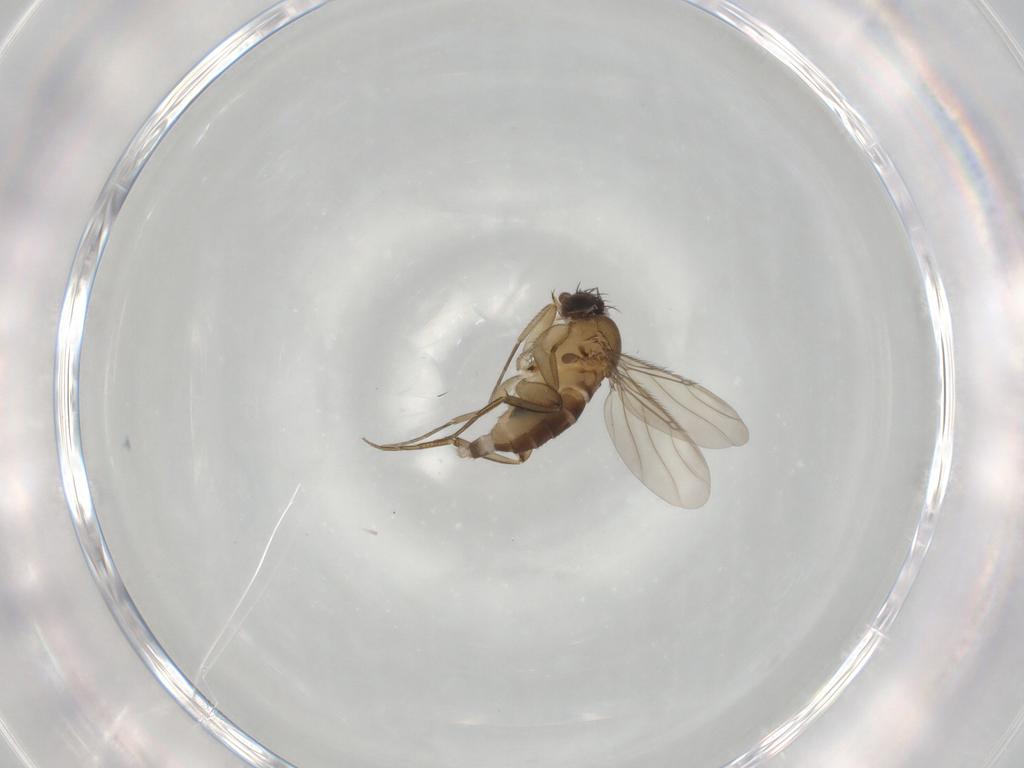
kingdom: Animalia
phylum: Arthropoda
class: Insecta
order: Diptera
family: Phoridae
